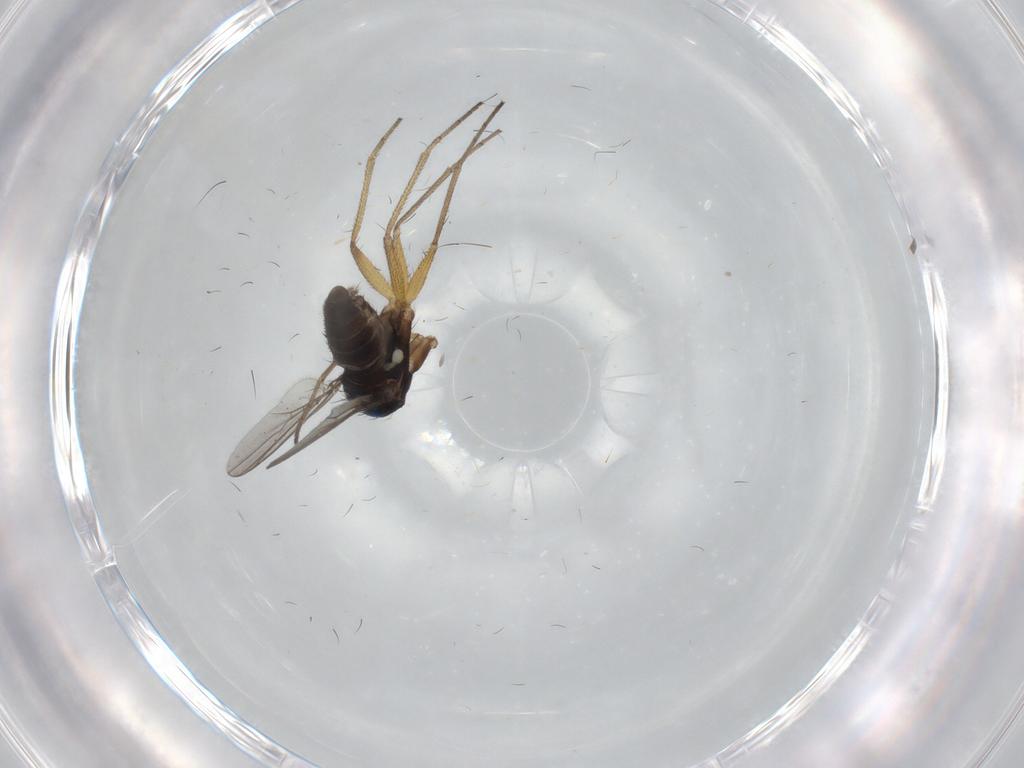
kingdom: Animalia
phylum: Arthropoda
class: Insecta
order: Diptera
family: Dolichopodidae
